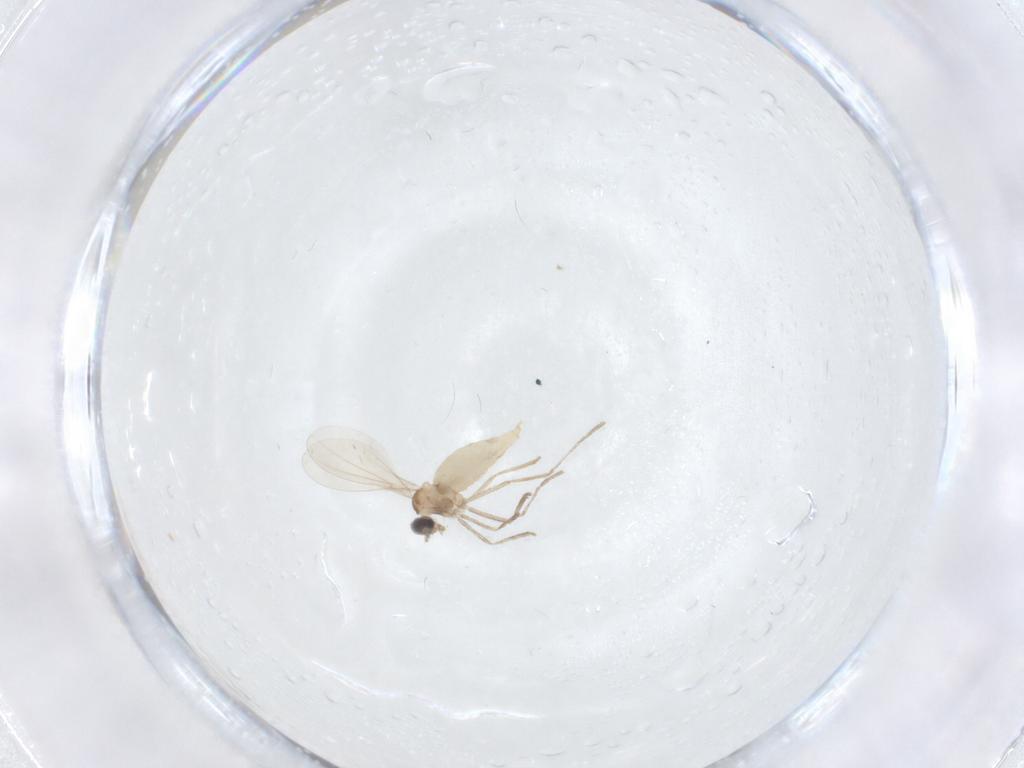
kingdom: Animalia
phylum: Arthropoda
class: Insecta
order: Diptera
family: Cecidomyiidae
